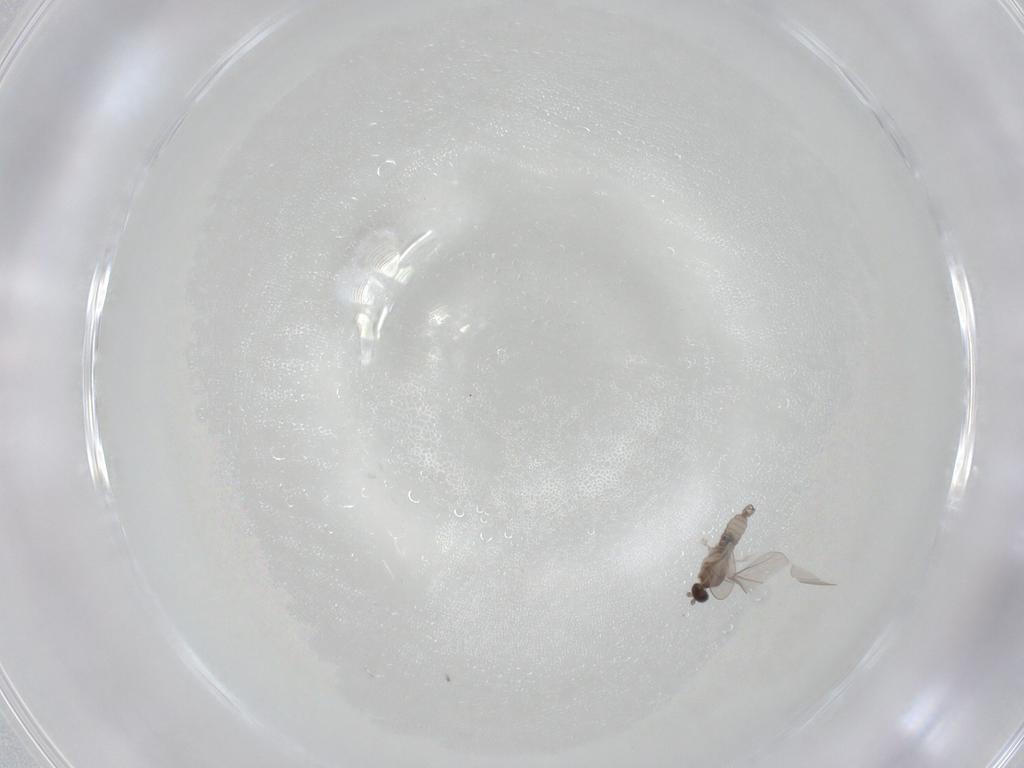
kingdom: Animalia
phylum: Arthropoda
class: Insecta
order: Diptera
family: Cecidomyiidae
